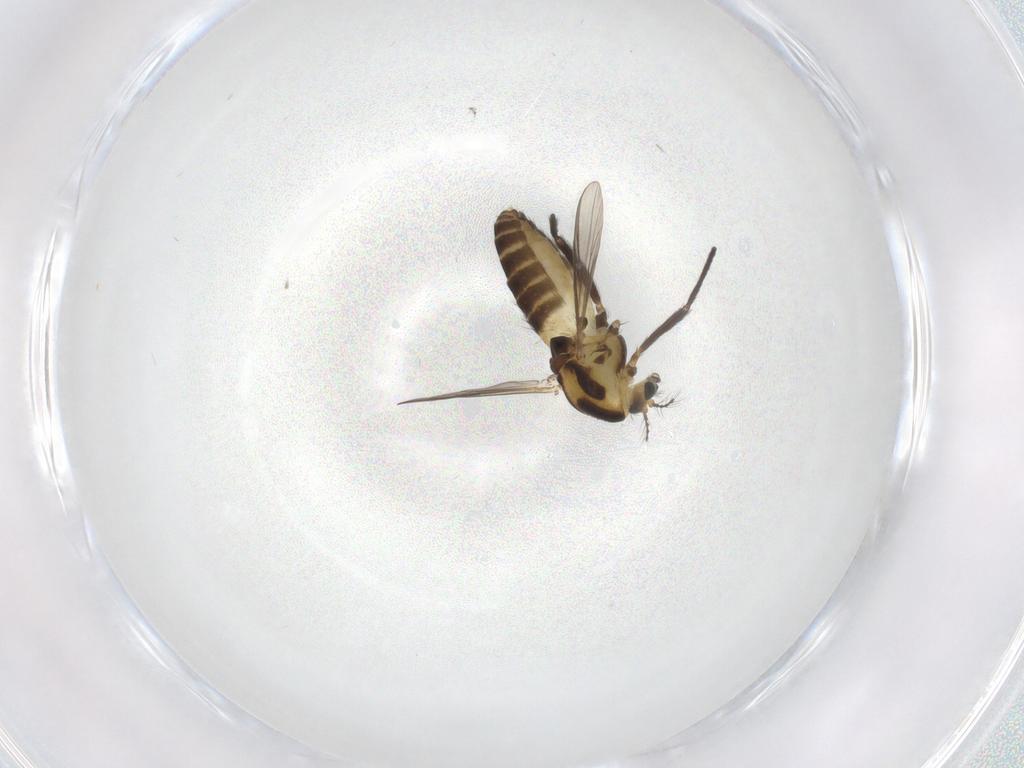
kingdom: Animalia
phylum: Arthropoda
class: Insecta
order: Diptera
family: Chironomidae
